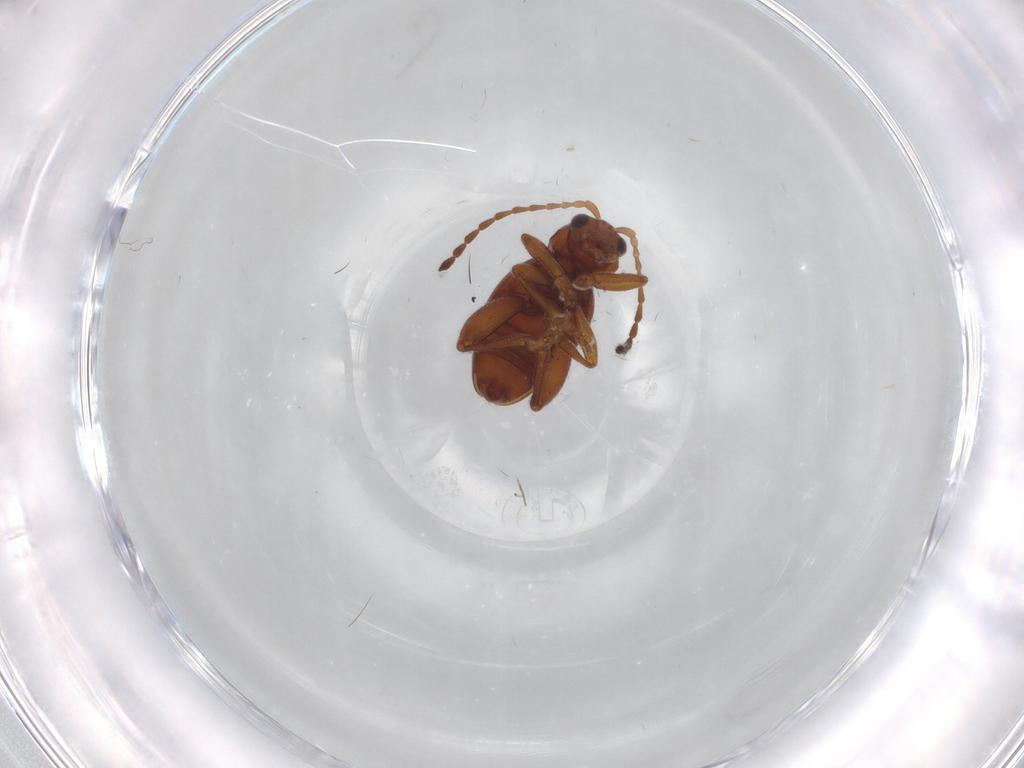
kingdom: Animalia
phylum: Arthropoda
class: Insecta
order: Coleoptera
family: Chrysomelidae
